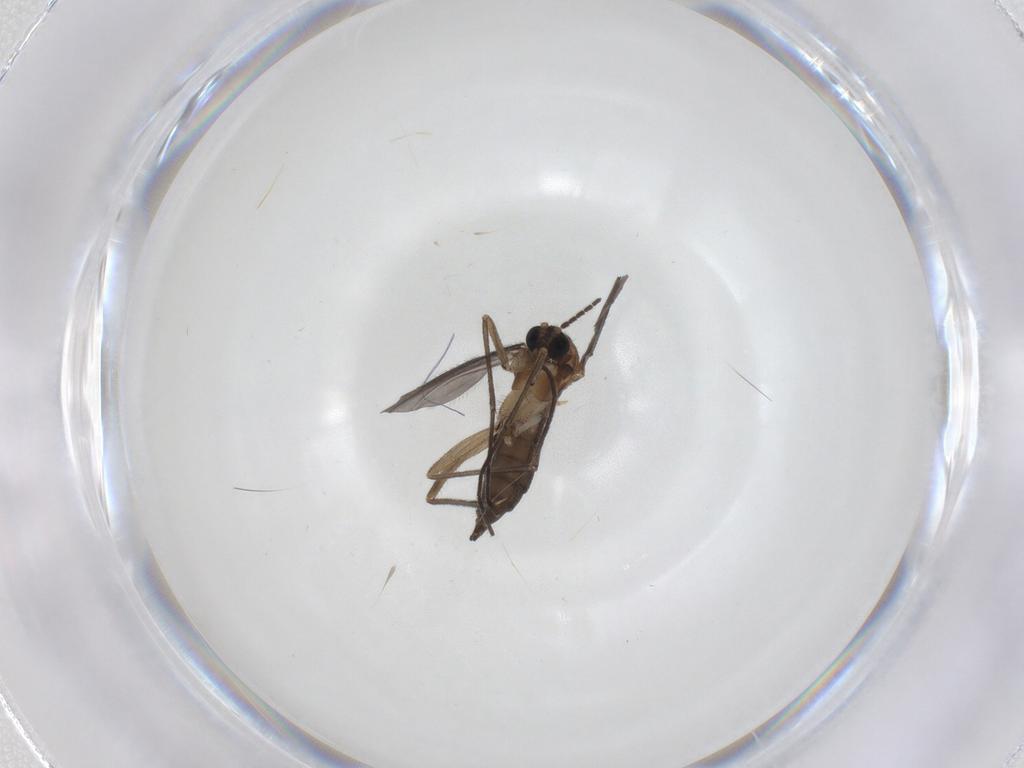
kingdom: Animalia
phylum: Arthropoda
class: Insecta
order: Diptera
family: Sciaridae
